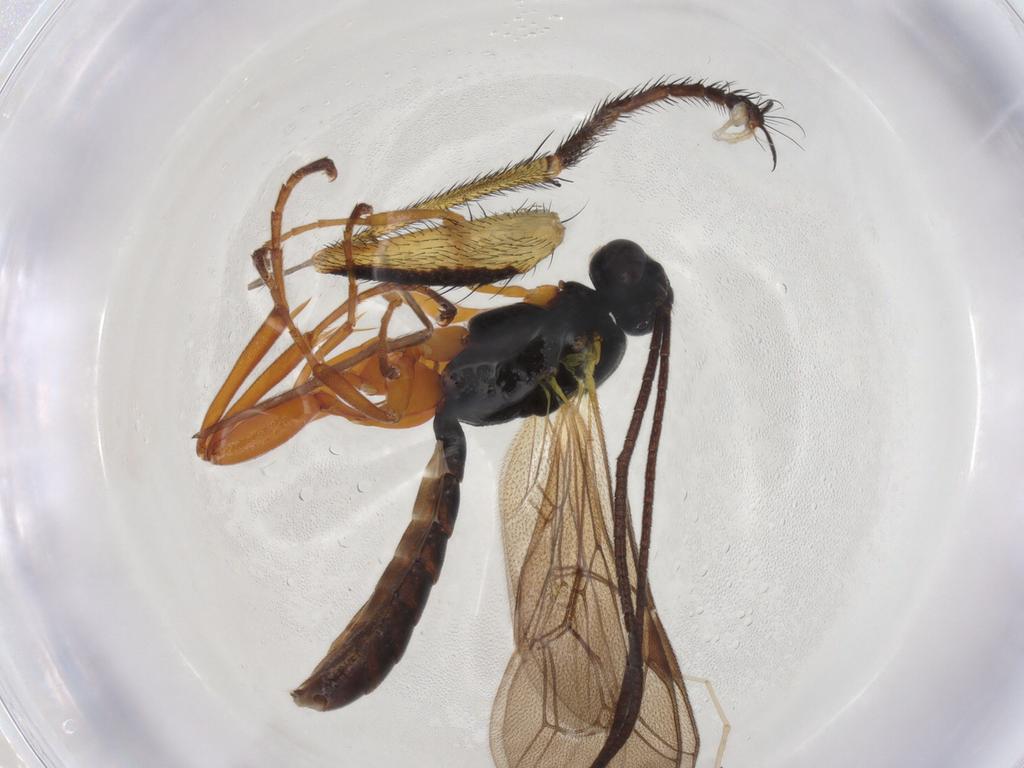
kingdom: Animalia
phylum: Arthropoda
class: Insecta
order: Hymenoptera
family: Ichneumonidae
